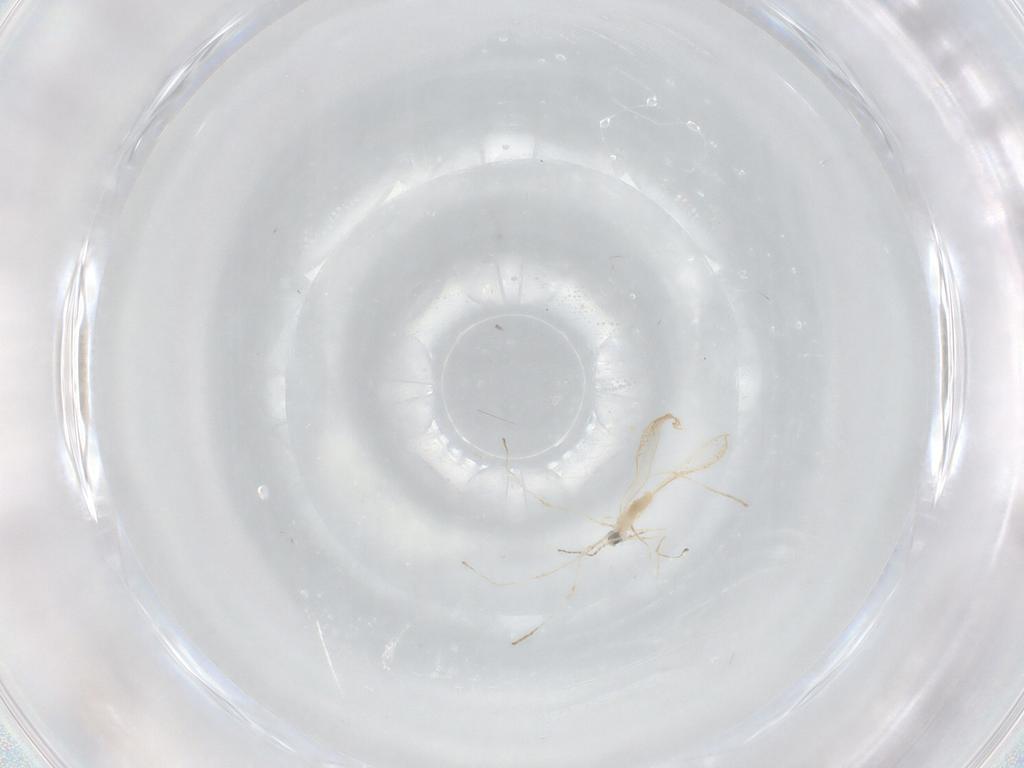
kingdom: Animalia
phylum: Arthropoda
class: Insecta
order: Diptera
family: Cecidomyiidae
